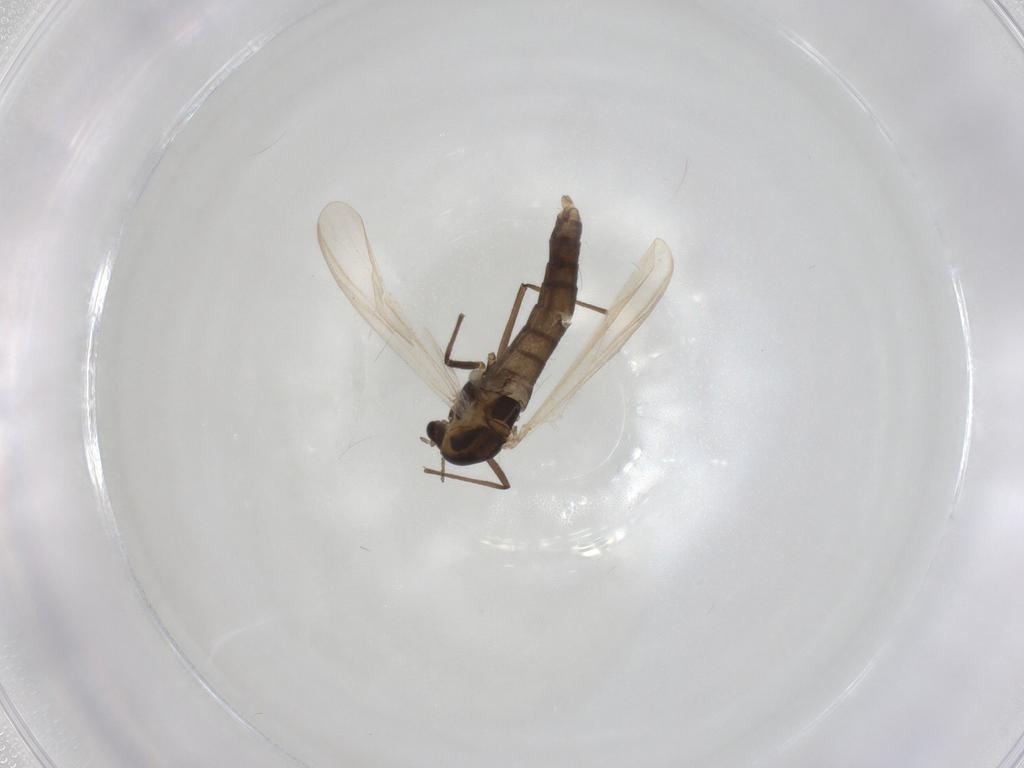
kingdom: Animalia
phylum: Arthropoda
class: Insecta
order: Diptera
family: Chironomidae
